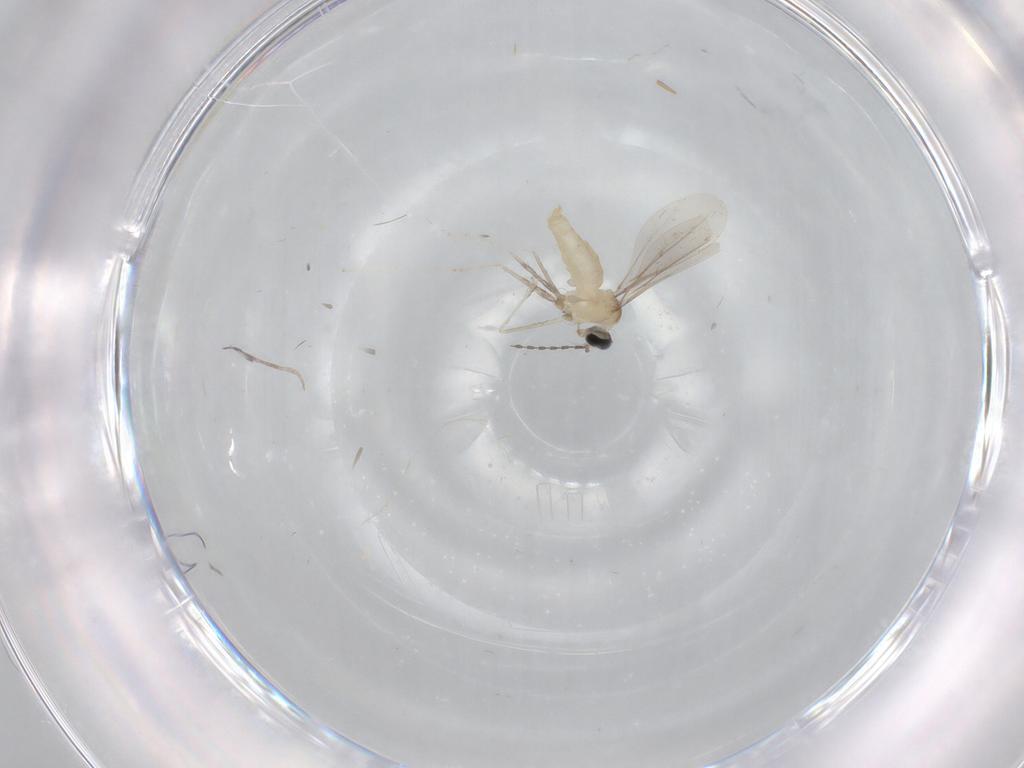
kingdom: Animalia
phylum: Arthropoda
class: Insecta
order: Diptera
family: Cecidomyiidae
